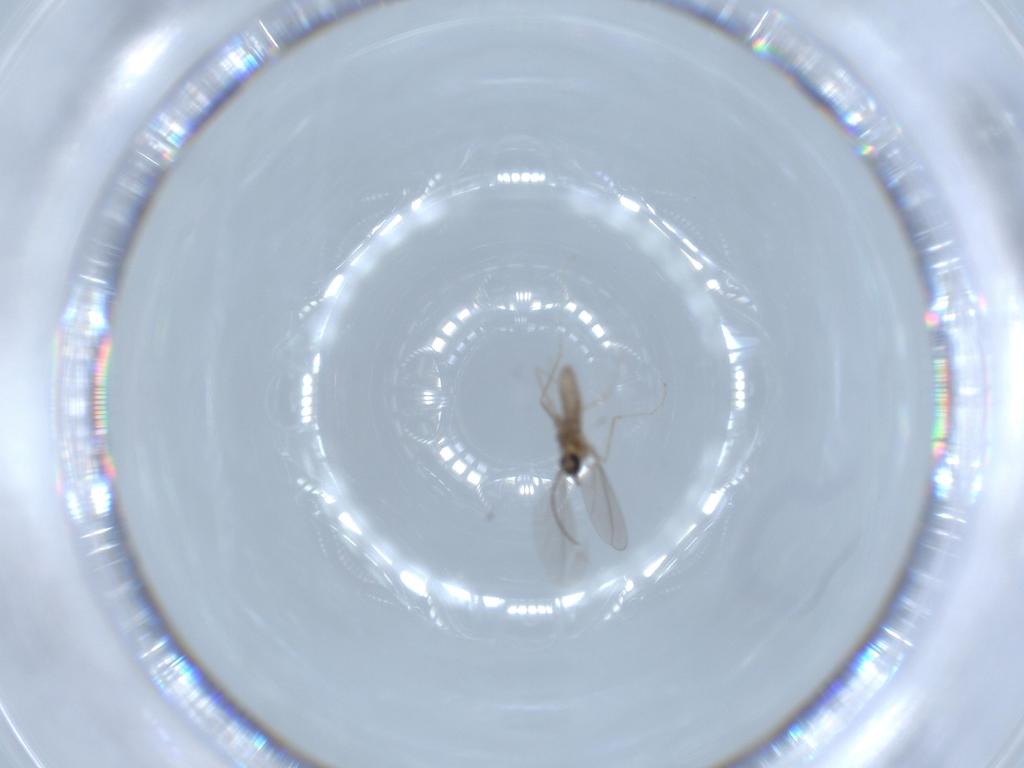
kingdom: Animalia
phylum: Arthropoda
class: Insecta
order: Diptera
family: Cecidomyiidae
